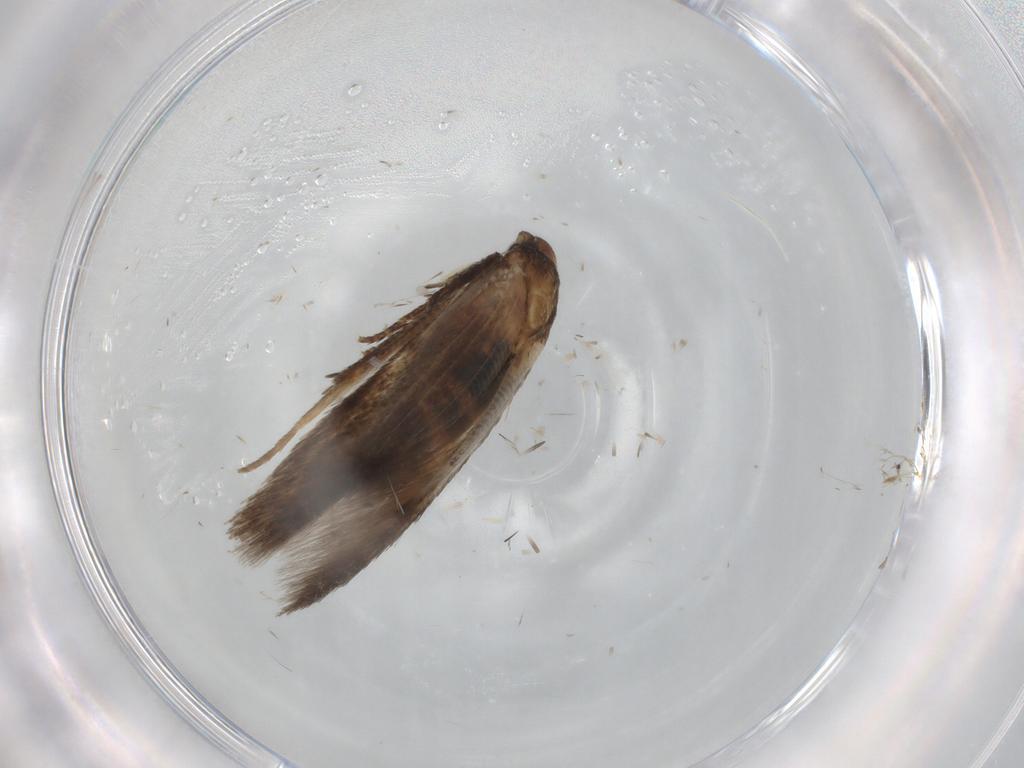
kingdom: Animalia
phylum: Arthropoda
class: Insecta
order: Lepidoptera
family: Cosmopterigidae
